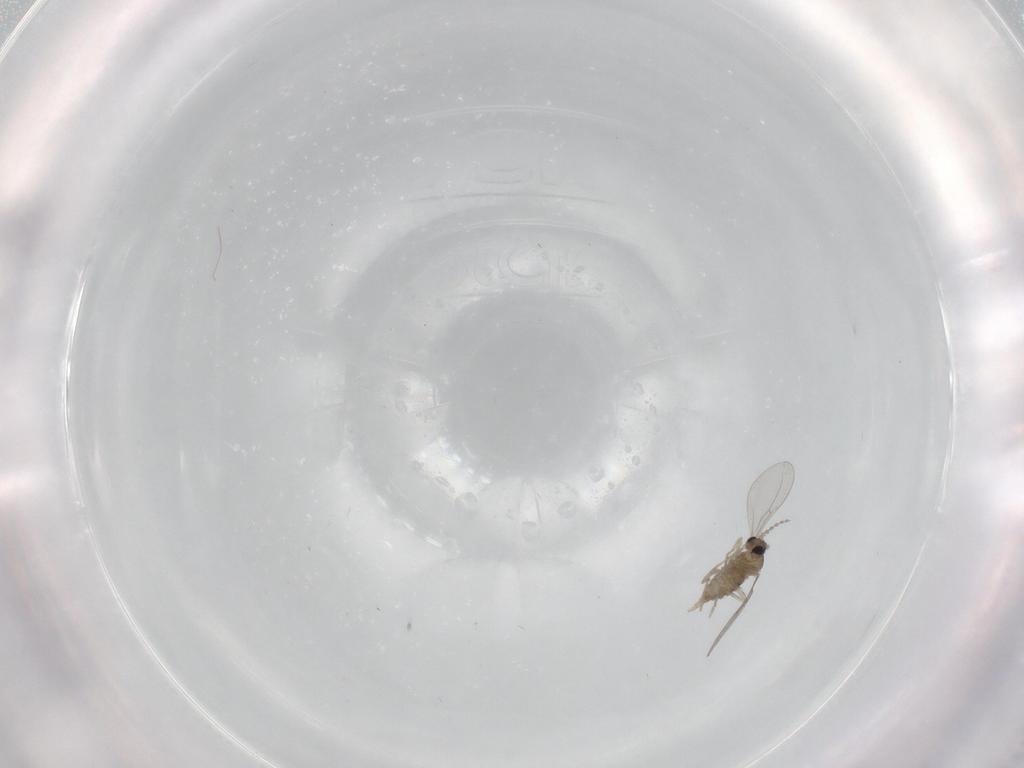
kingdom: Animalia
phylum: Arthropoda
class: Insecta
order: Diptera
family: Cecidomyiidae
